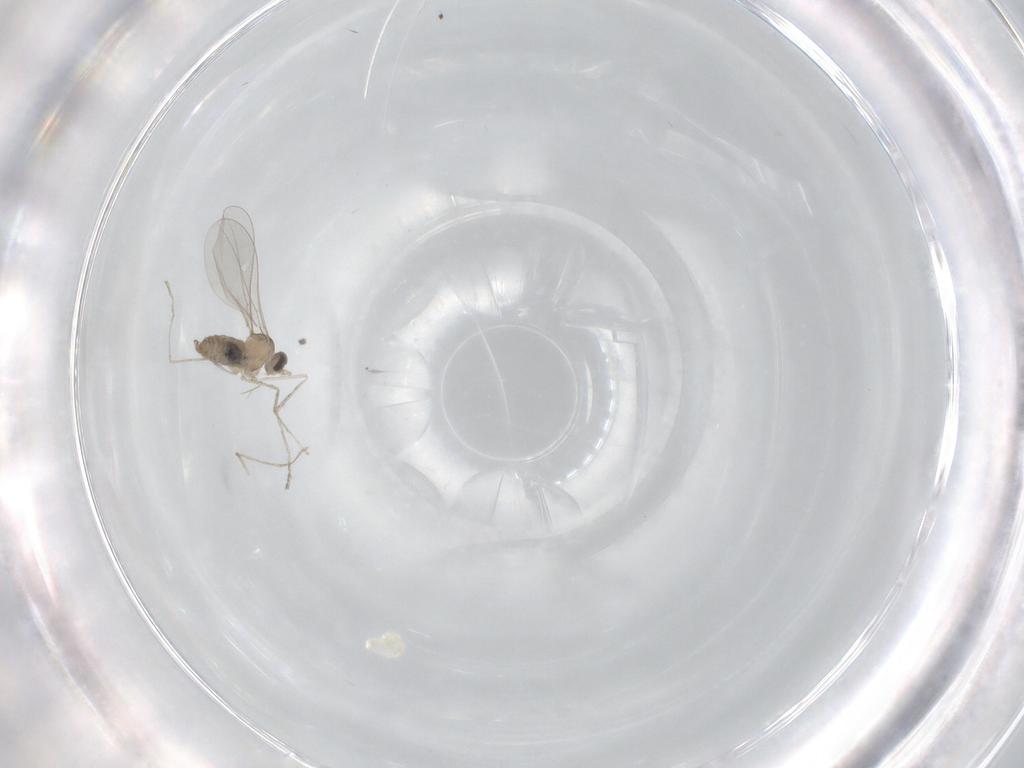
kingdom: Animalia
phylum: Arthropoda
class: Insecta
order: Diptera
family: Cecidomyiidae
